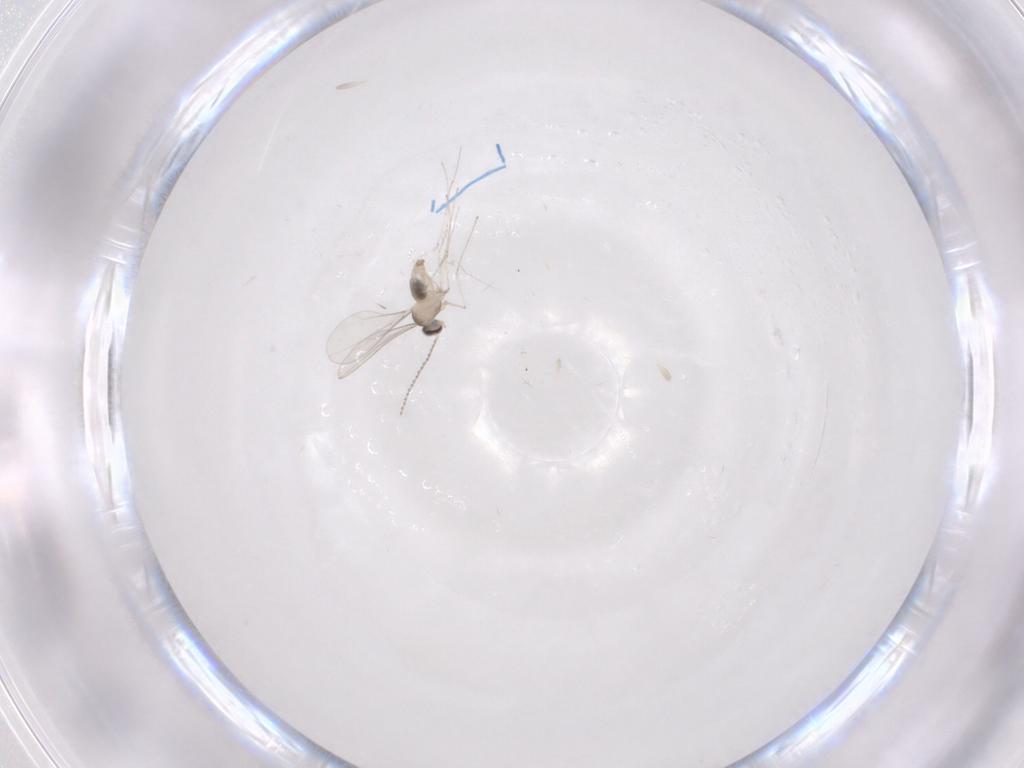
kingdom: Animalia
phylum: Arthropoda
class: Insecta
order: Diptera
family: Cecidomyiidae
